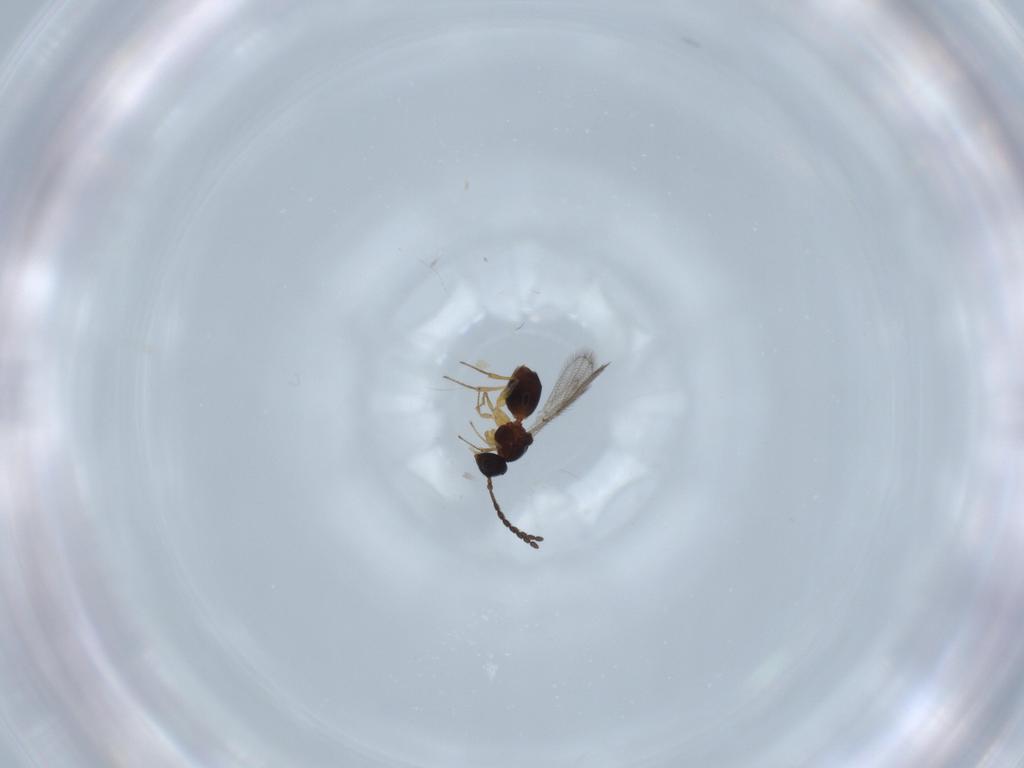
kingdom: Animalia
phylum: Arthropoda
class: Insecta
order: Hymenoptera
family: Figitidae
